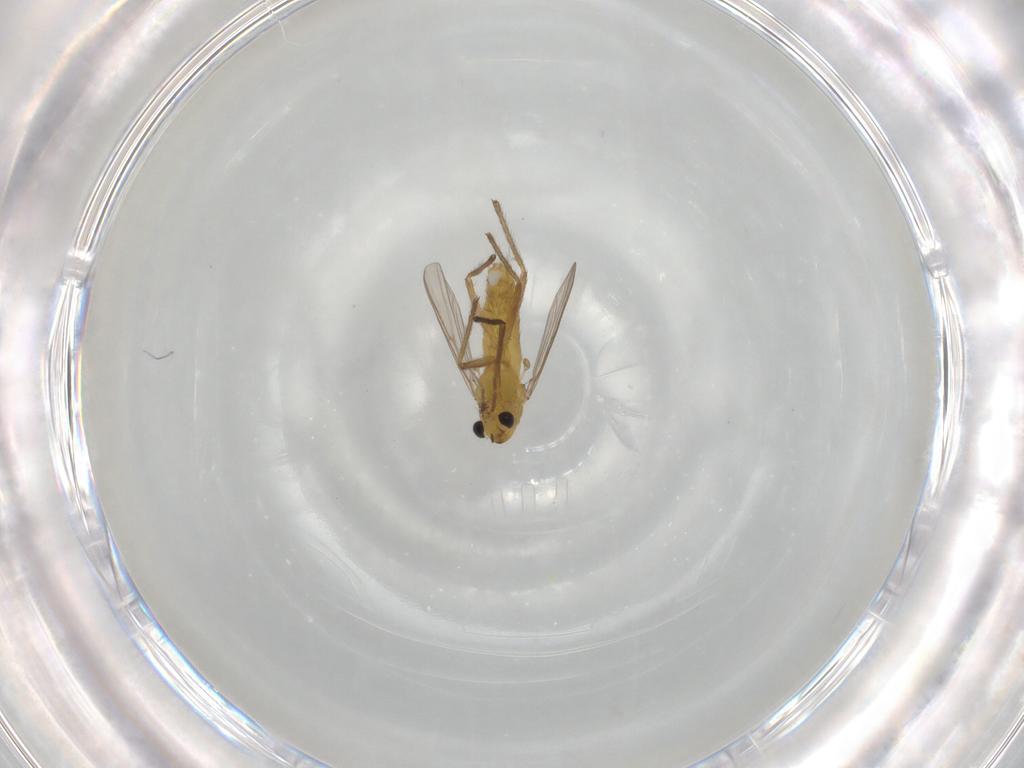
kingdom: Animalia
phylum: Arthropoda
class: Insecta
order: Diptera
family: Chironomidae
